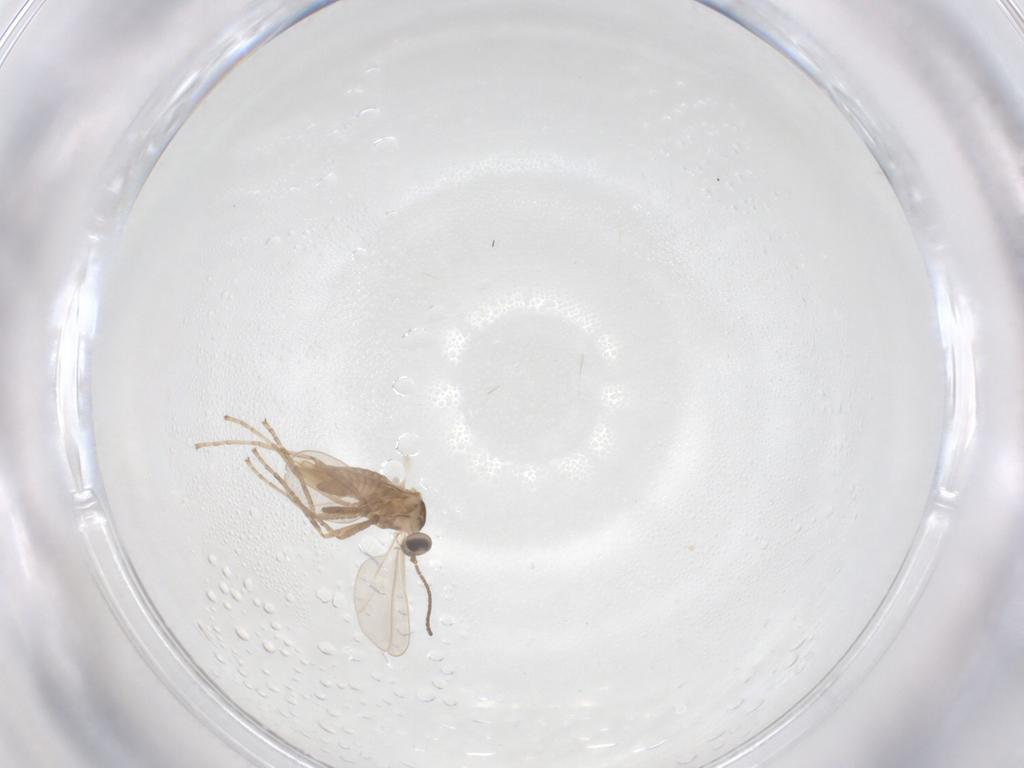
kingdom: Animalia
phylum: Arthropoda
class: Insecta
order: Diptera
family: Cecidomyiidae
